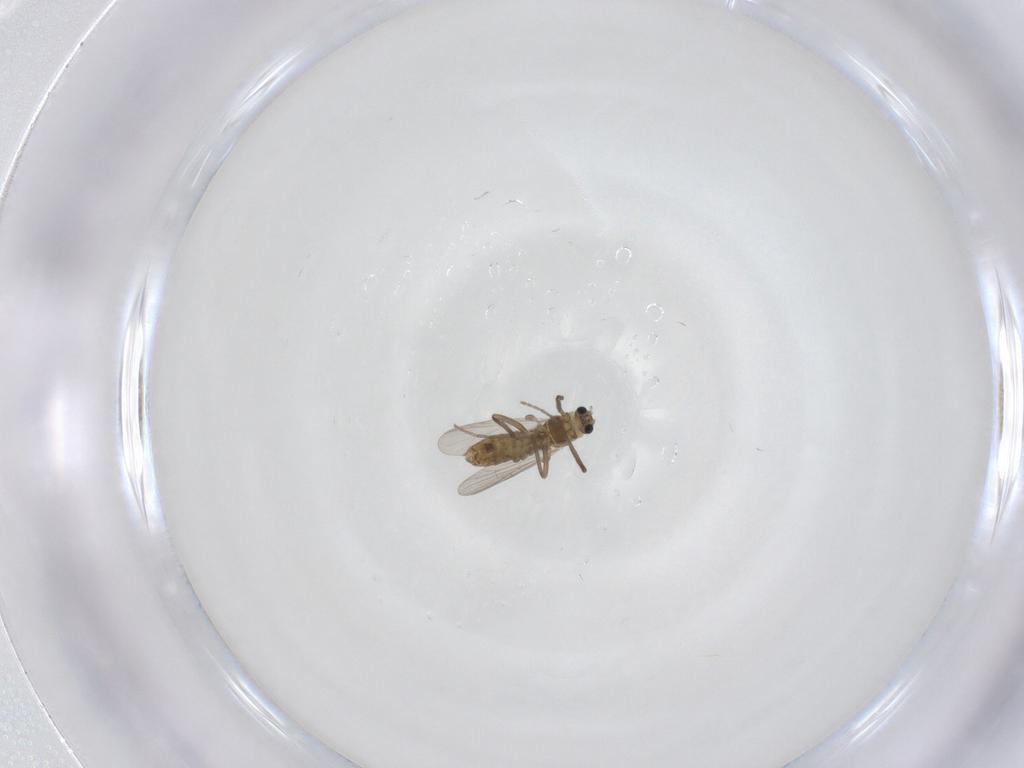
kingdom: Animalia
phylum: Arthropoda
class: Insecta
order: Diptera
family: Chironomidae
